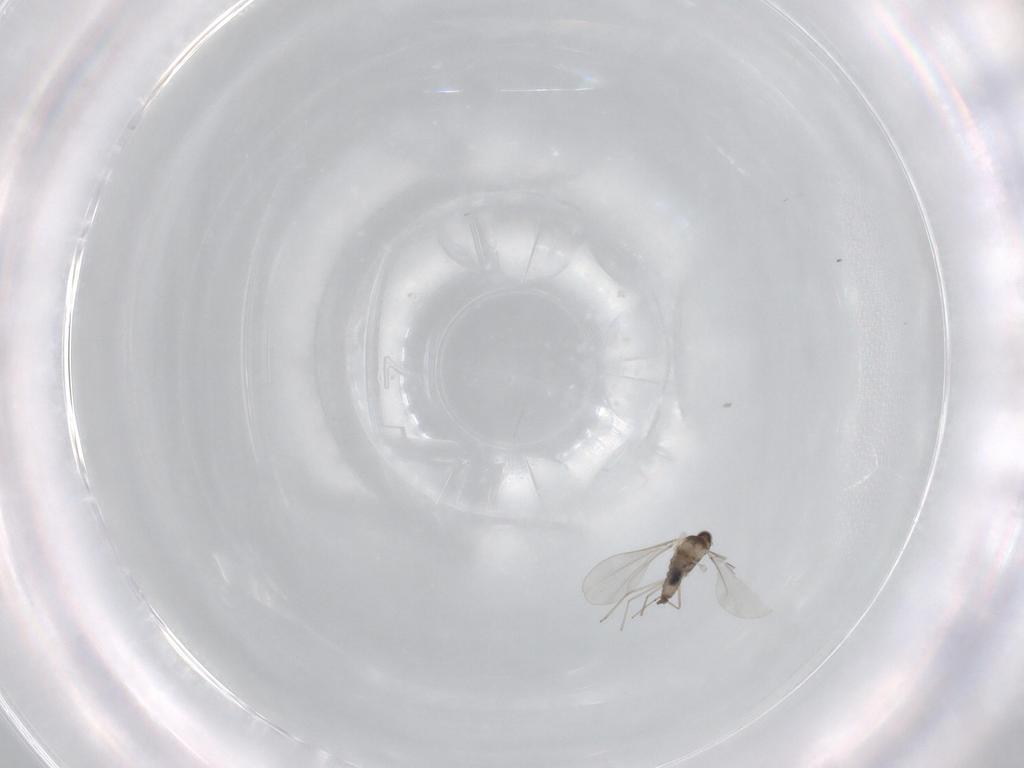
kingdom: Animalia
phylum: Arthropoda
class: Insecta
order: Diptera
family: Cecidomyiidae
